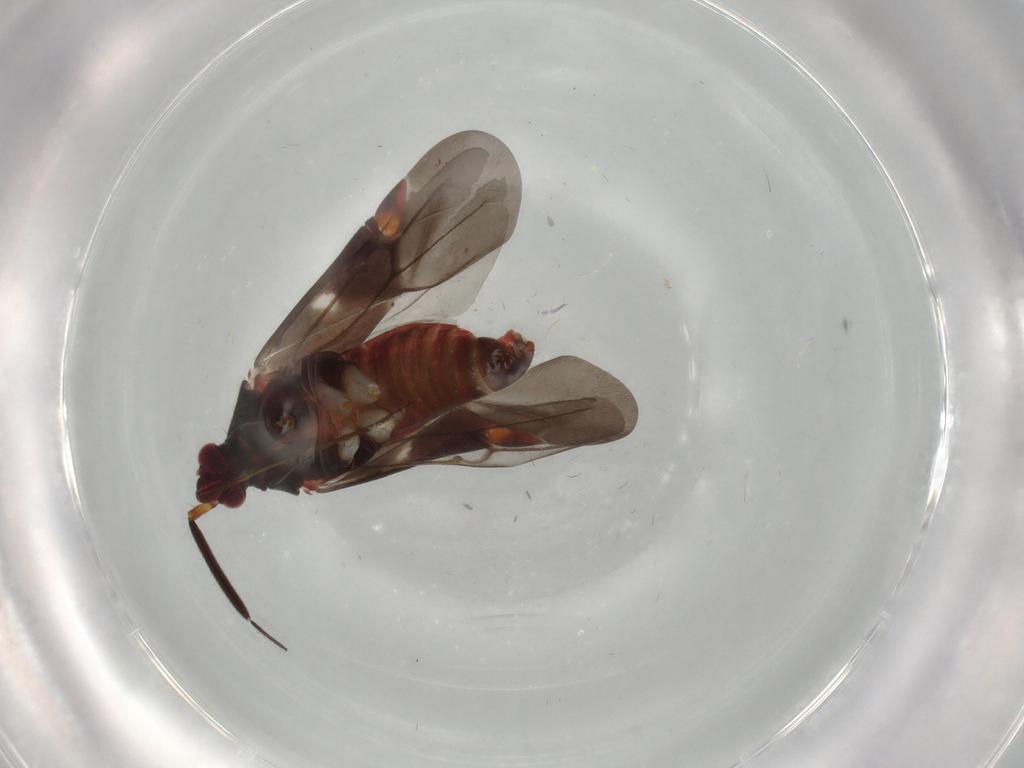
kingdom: Animalia
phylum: Arthropoda
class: Insecta
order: Hemiptera
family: Miridae
